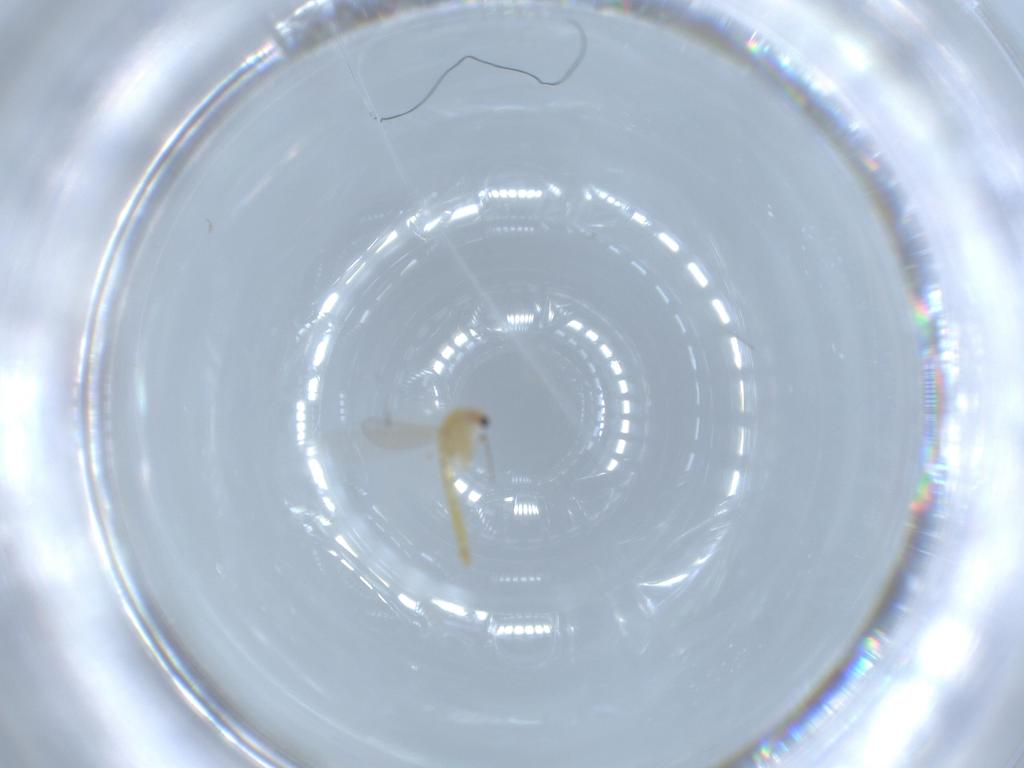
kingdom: Animalia
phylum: Arthropoda
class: Insecta
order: Diptera
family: Chironomidae
